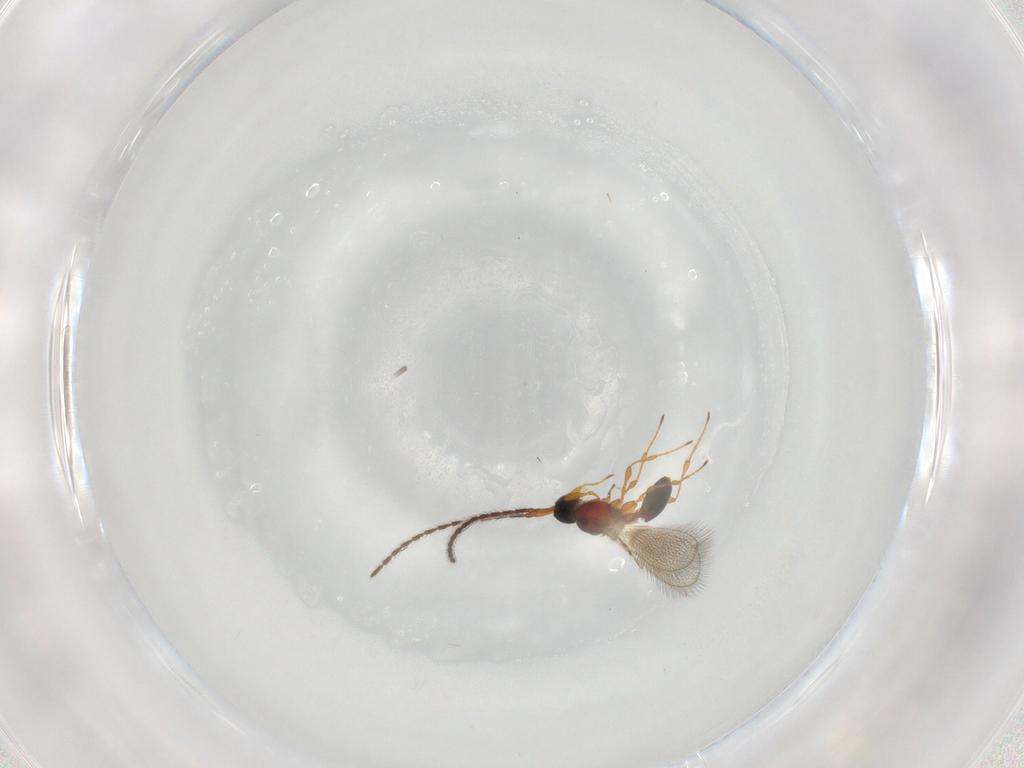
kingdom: Animalia
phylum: Arthropoda
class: Insecta
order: Hymenoptera
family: Diapriidae
